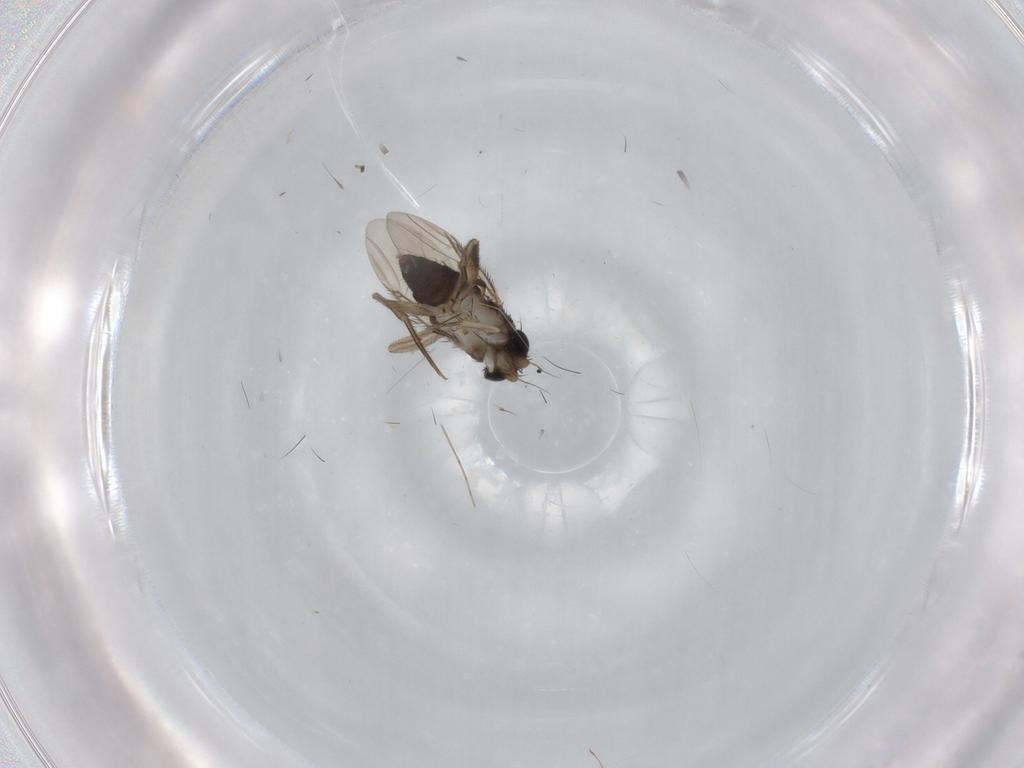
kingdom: Animalia
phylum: Arthropoda
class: Insecta
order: Diptera
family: Phoridae
